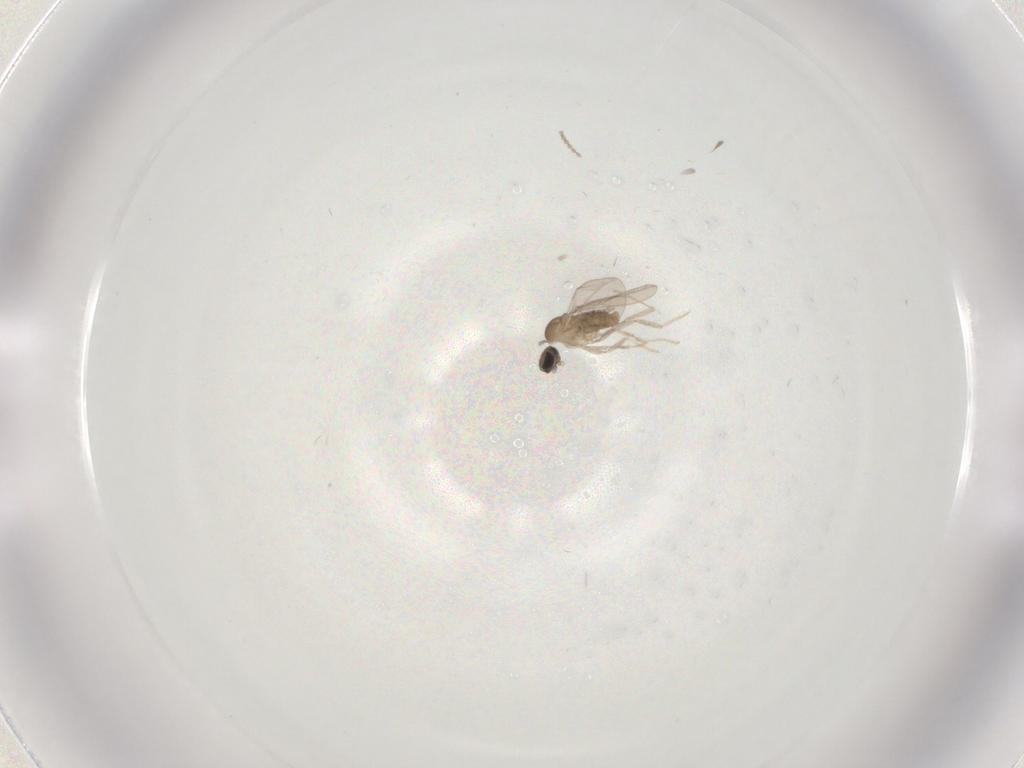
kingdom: Animalia
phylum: Arthropoda
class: Insecta
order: Diptera
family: Cecidomyiidae
